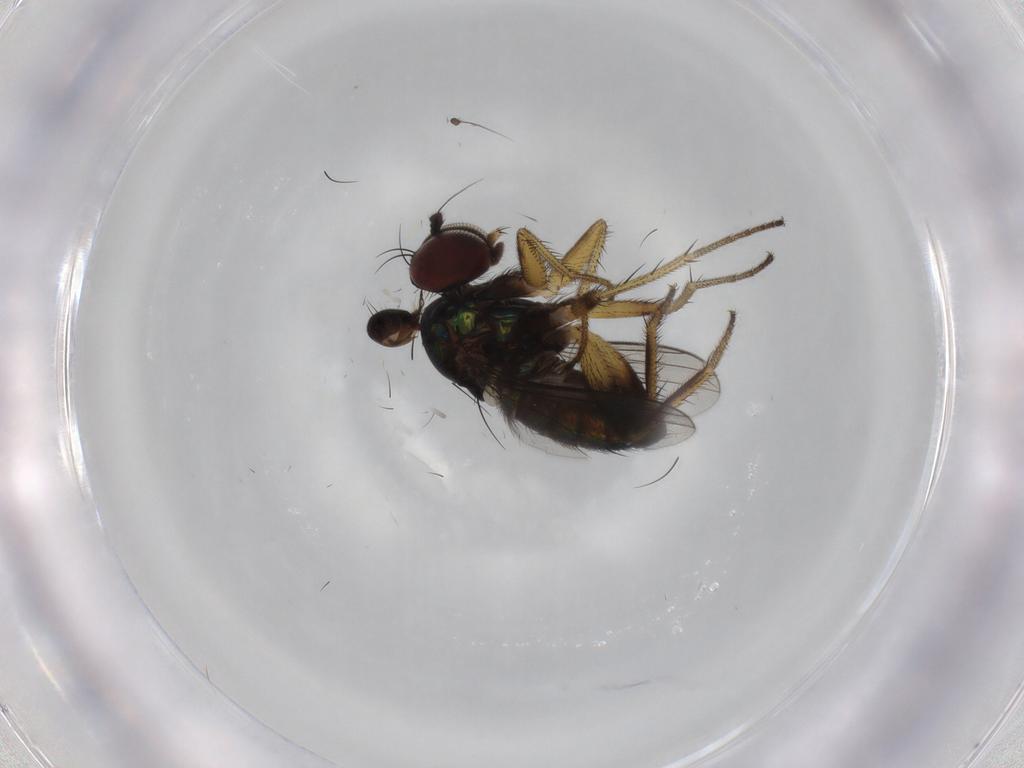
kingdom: Animalia
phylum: Arthropoda
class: Insecta
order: Diptera
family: Dolichopodidae
